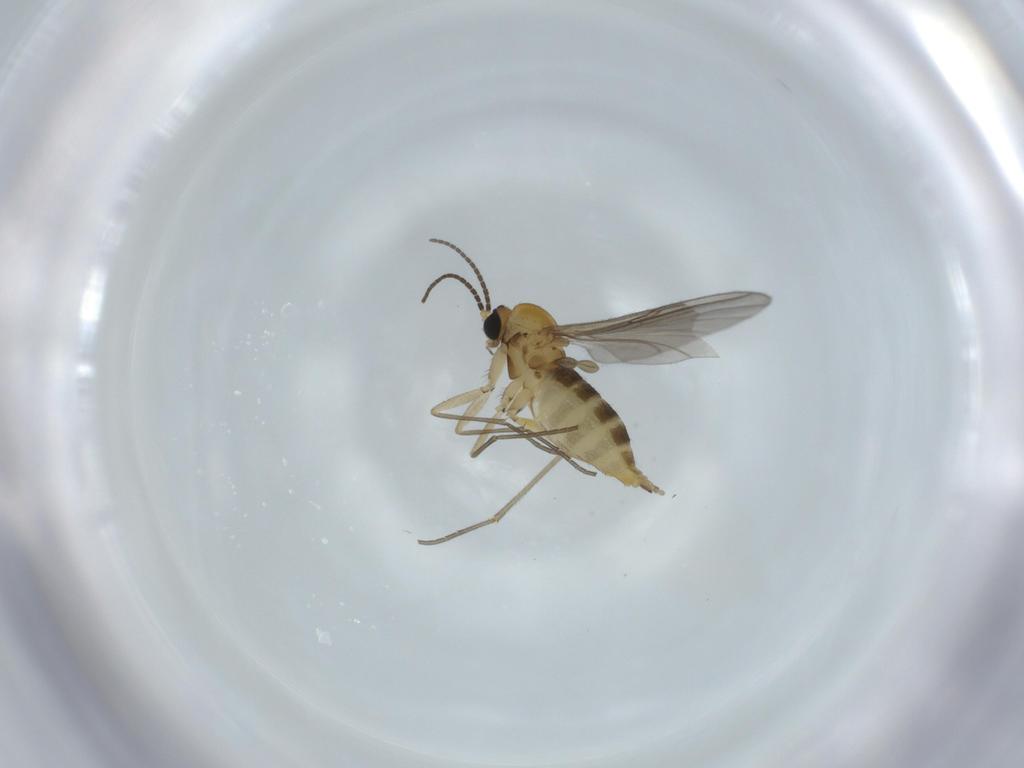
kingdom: Animalia
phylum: Arthropoda
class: Insecta
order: Diptera
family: Sciaridae
